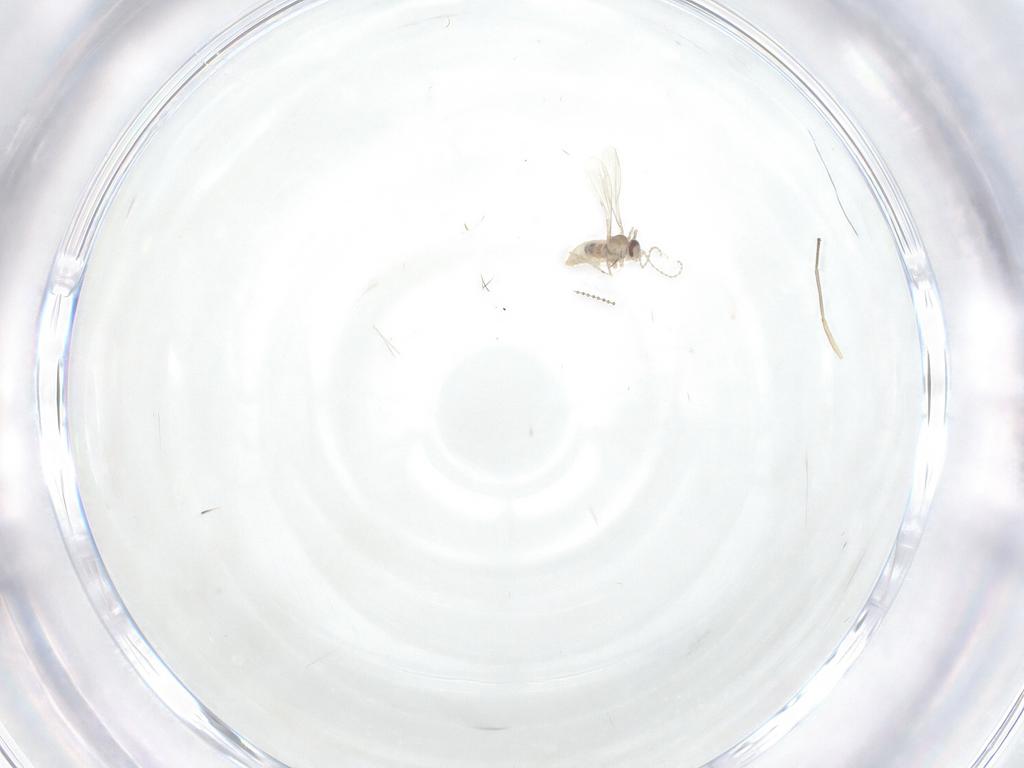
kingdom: Animalia
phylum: Arthropoda
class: Insecta
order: Diptera
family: Sciaridae
